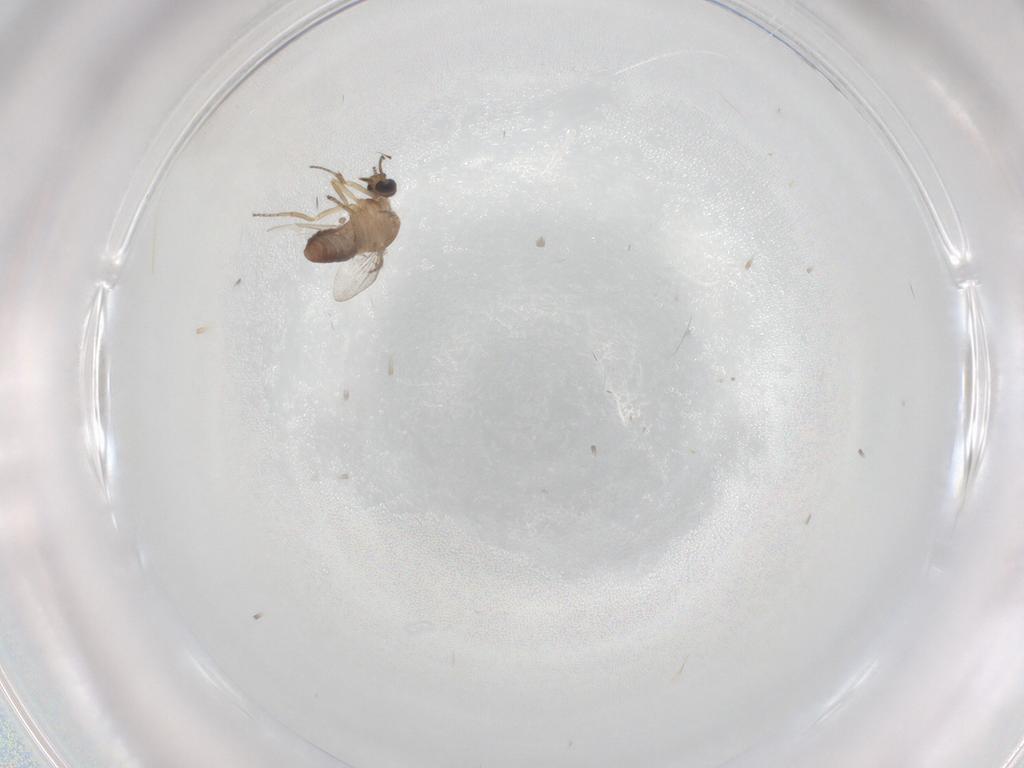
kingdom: Animalia
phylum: Arthropoda
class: Insecta
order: Diptera
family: Ceratopogonidae
